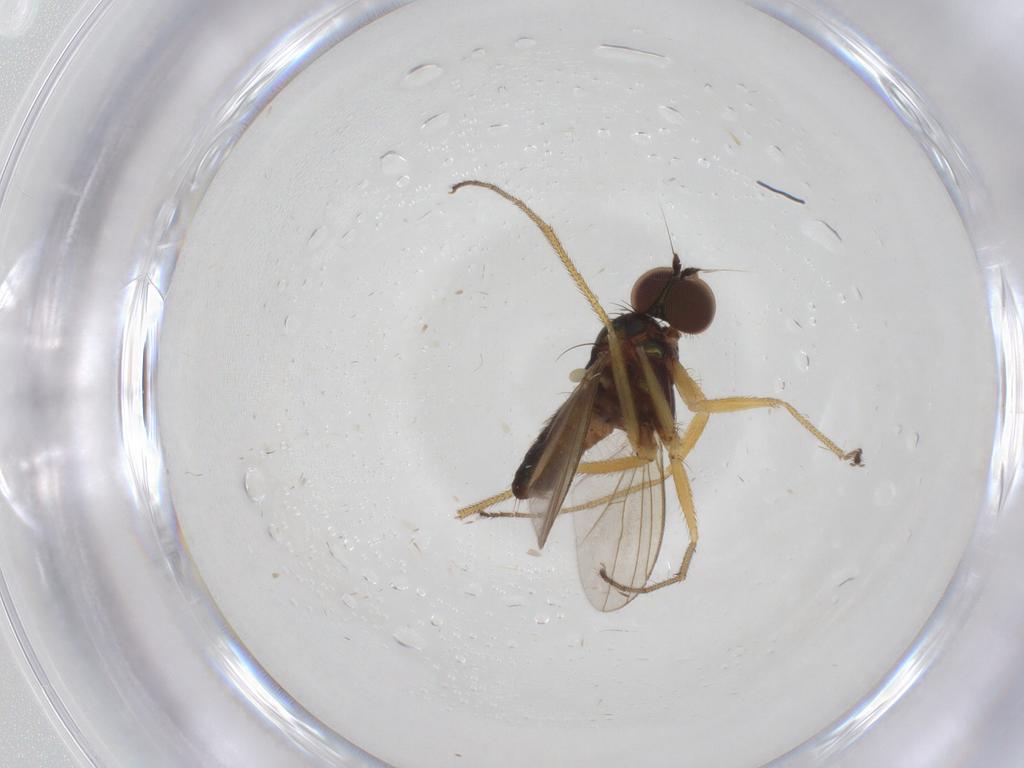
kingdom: Animalia
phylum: Arthropoda
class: Insecta
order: Diptera
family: Dolichopodidae
